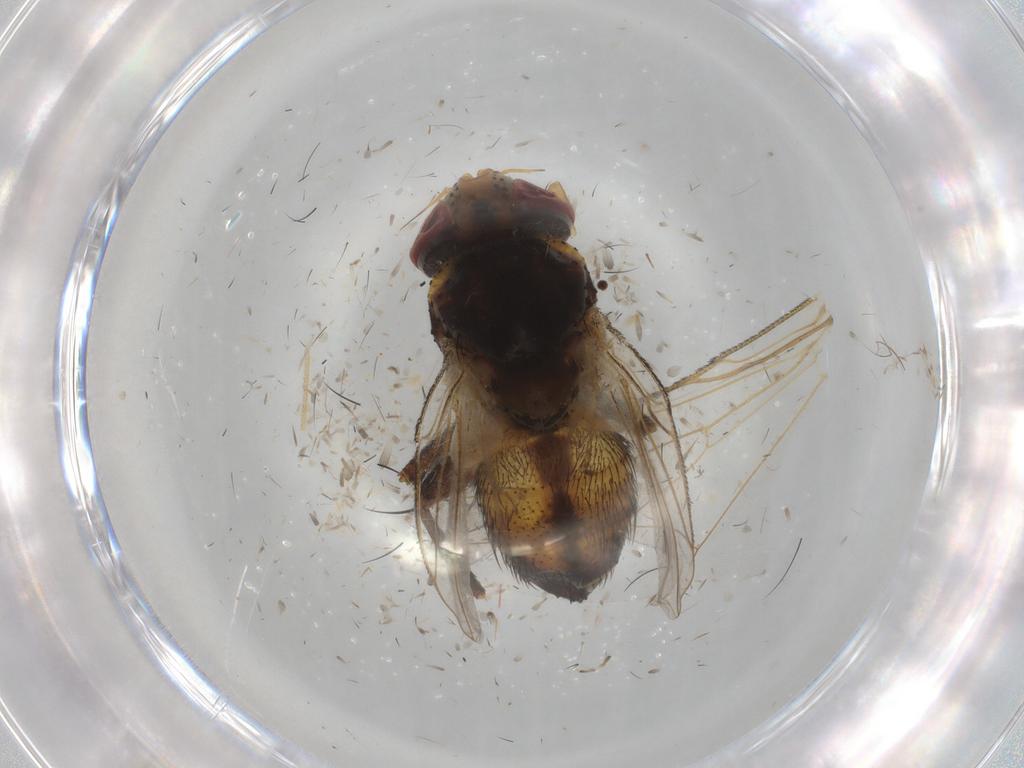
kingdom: Animalia
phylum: Arthropoda
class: Insecta
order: Diptera
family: Glossinidae
